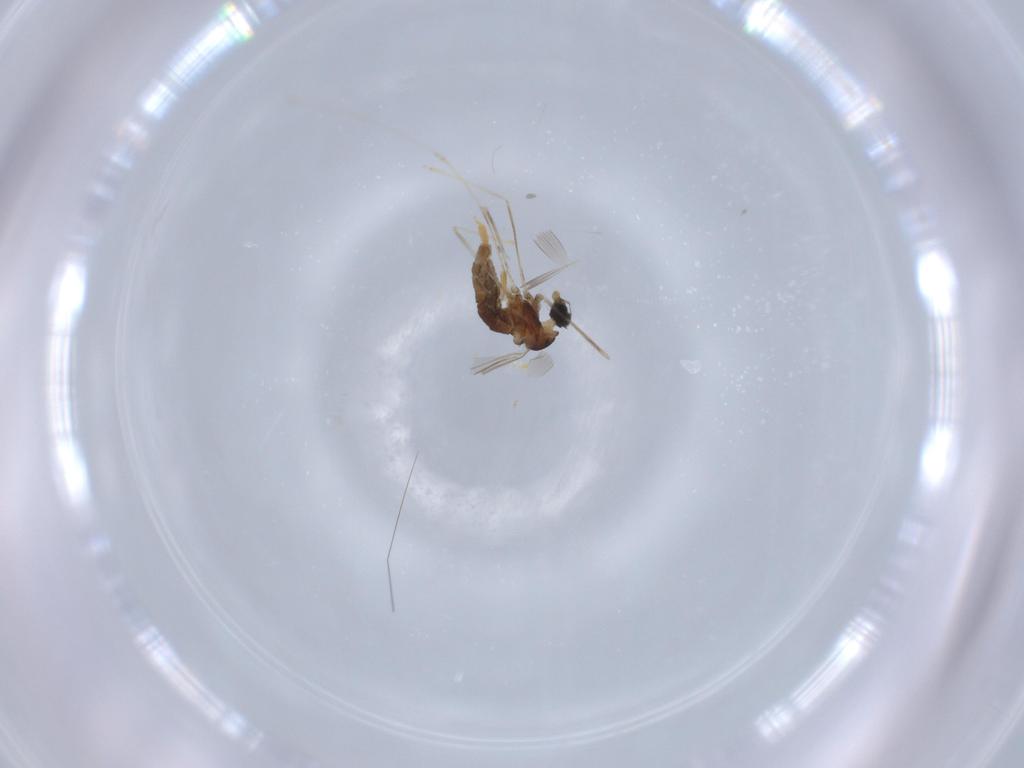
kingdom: Animalia
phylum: Arthropoda
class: Insecta
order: Diptera
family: Cecidomyiidae
